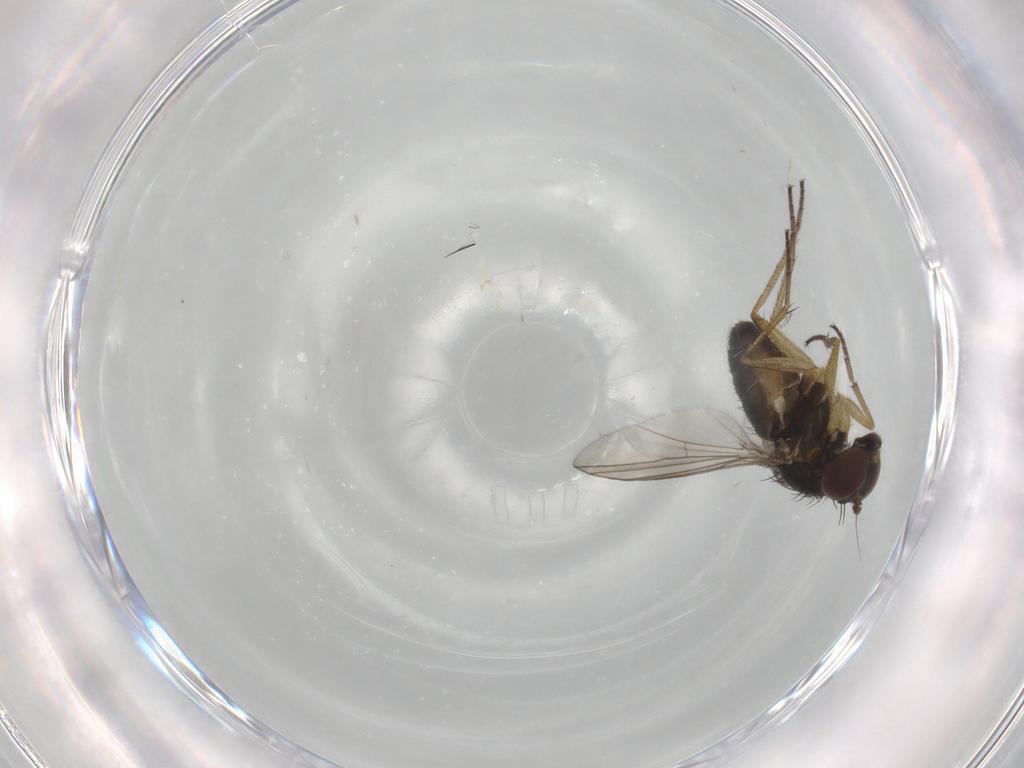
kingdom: Animalia
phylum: Arthropoda
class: Insecta
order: Diptera
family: Dolichopodidae
